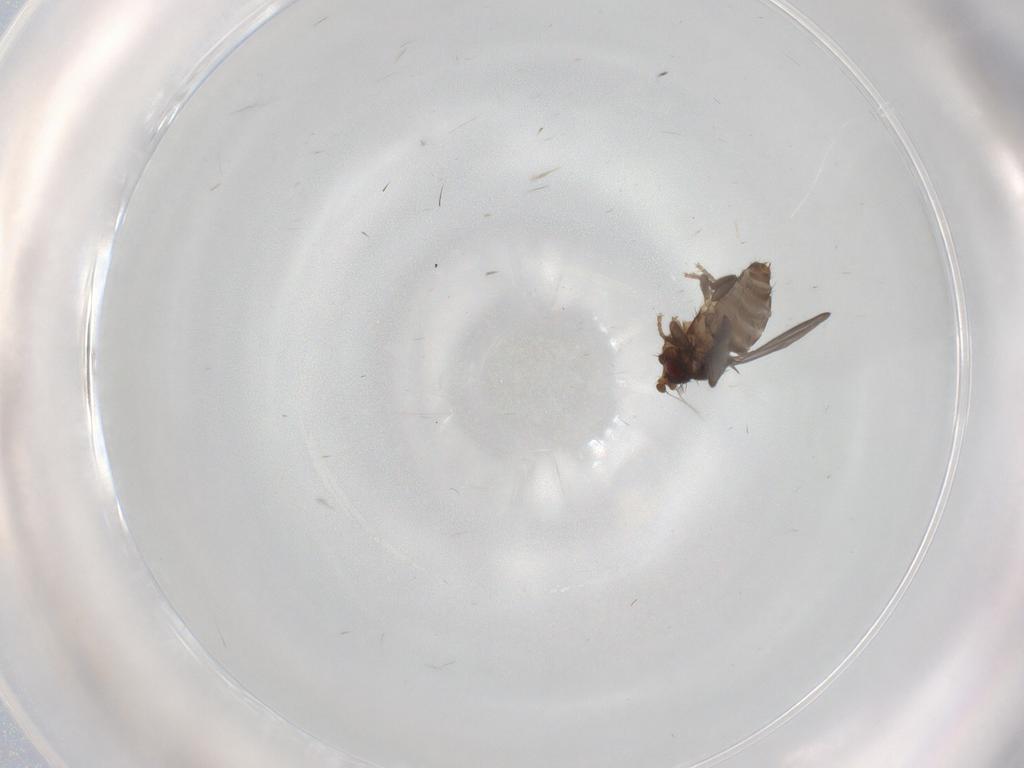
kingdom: Animalia
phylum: Arthropoda
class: Insecta
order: Diptera
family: Sphaeroceridae
